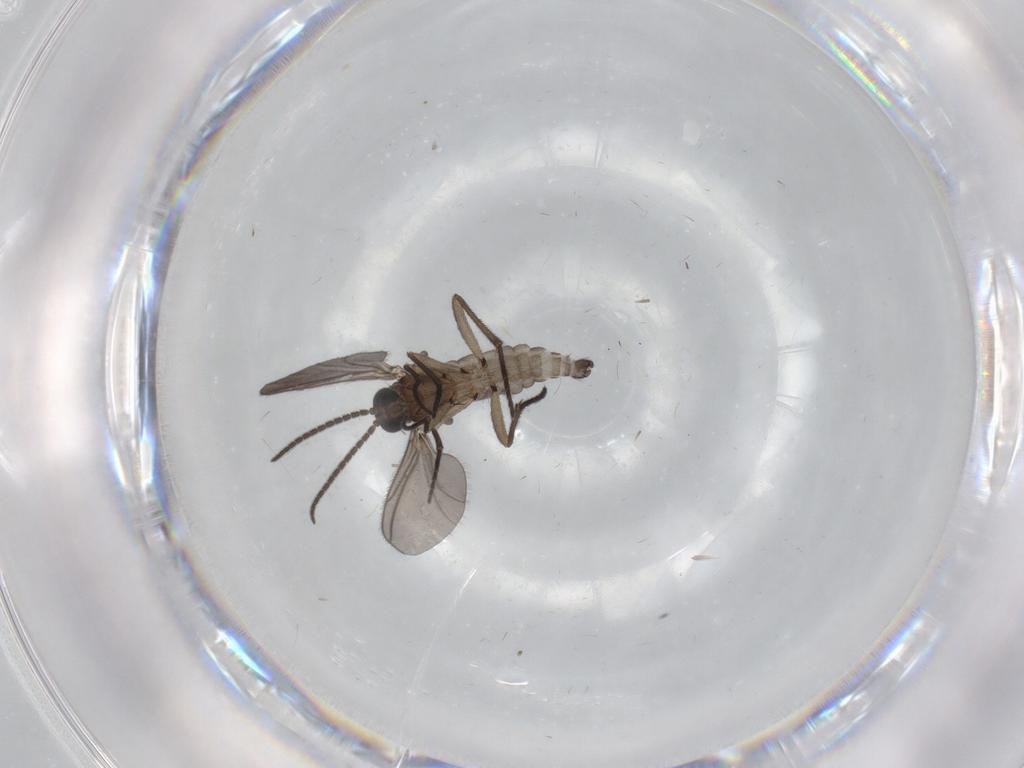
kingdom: Animalia
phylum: Arthropoda
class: Insecta
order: Diptera
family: Sciaridae
